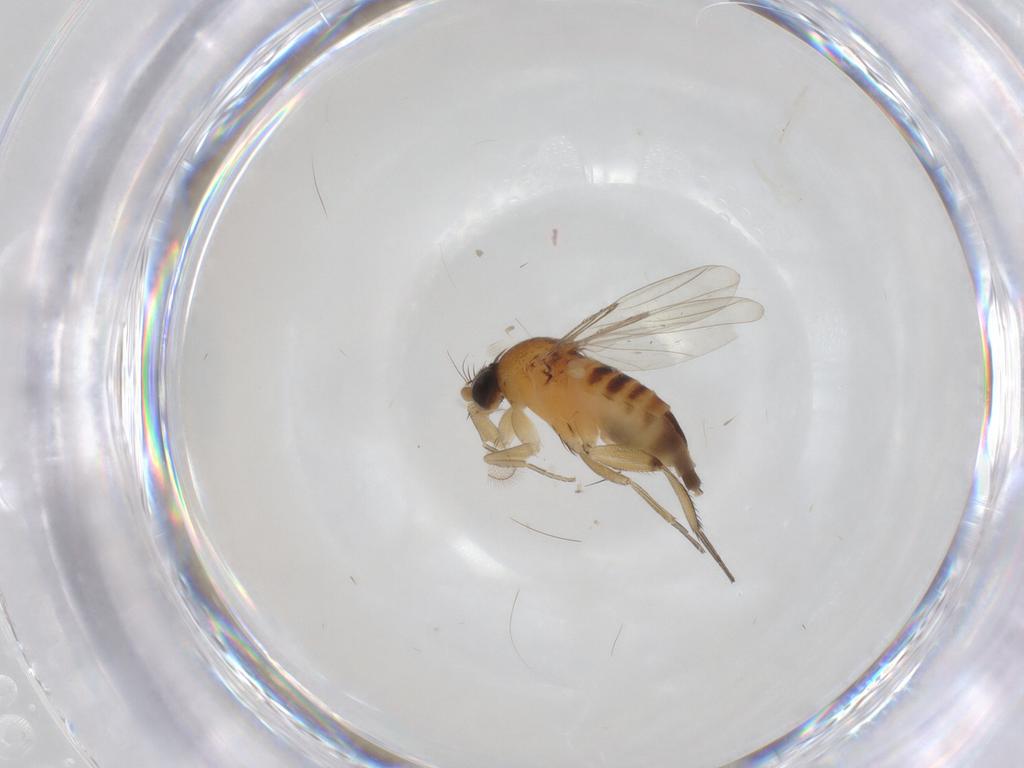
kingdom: Animalia
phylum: Arthropoda
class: Insecta
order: Diptera
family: Phoridae
